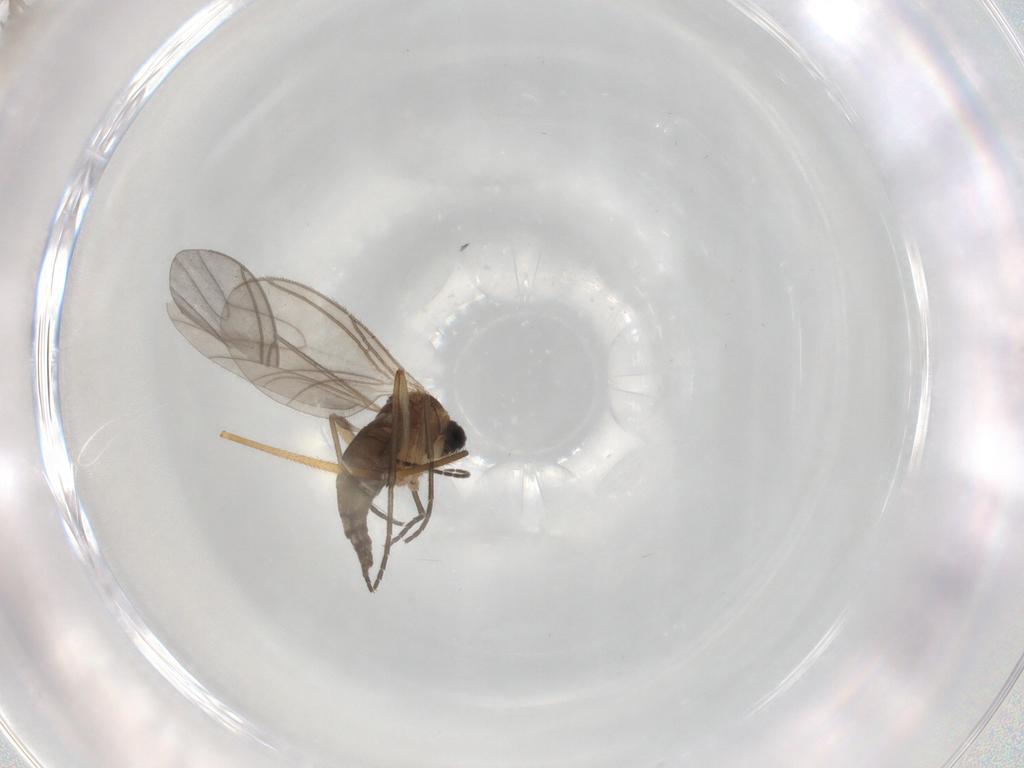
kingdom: Animalia
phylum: Arthropoda
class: Insecta
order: Diptera
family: Sciaridae
